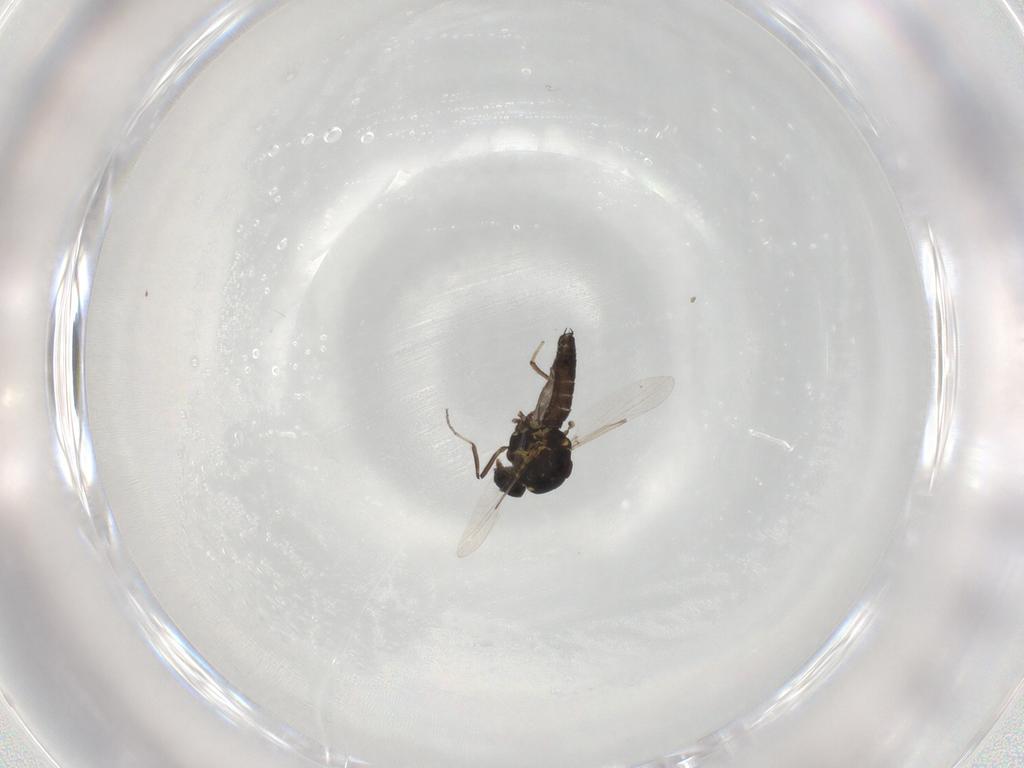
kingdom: Animalia
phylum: Arthropoda
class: Insecta
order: Diptera
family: Ceratopogonidae
